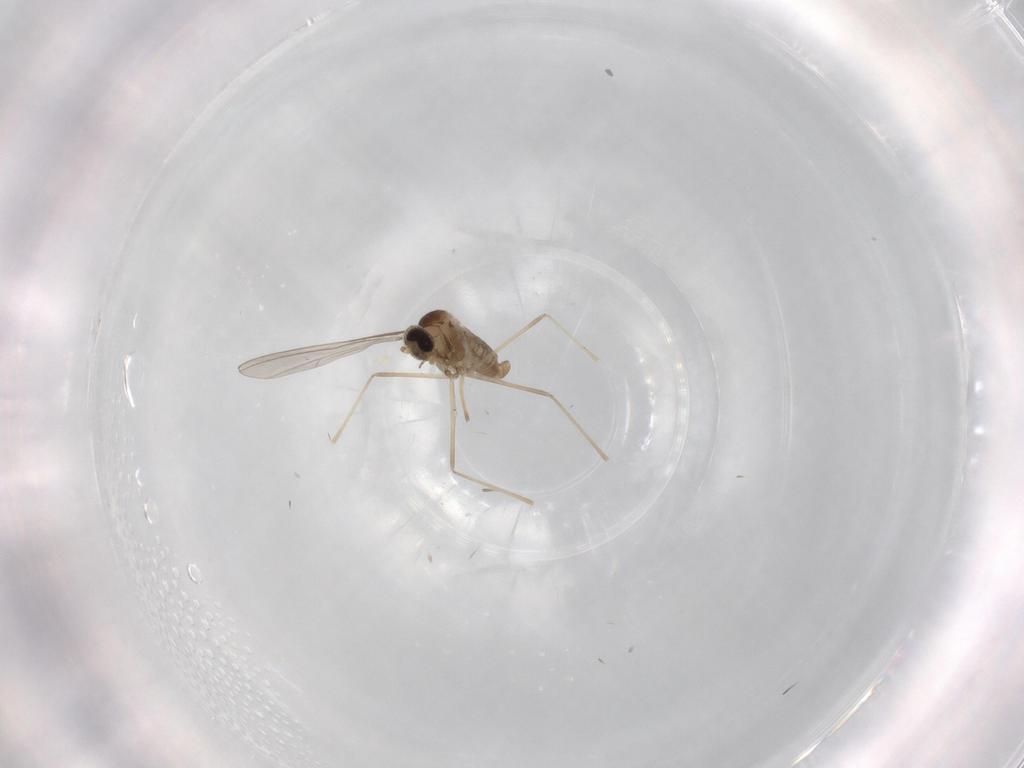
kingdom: Animalia
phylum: Arthropoda
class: Insecta
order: Diptera
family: Cecidomyiidae
